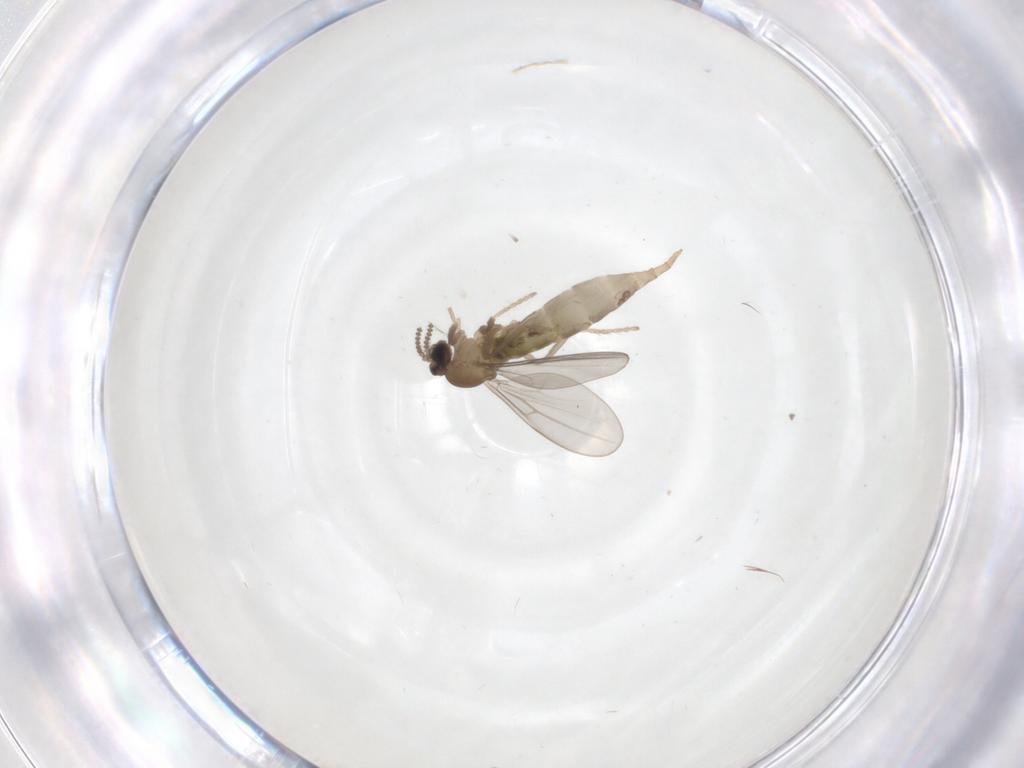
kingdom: Animalia
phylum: Arthropoda
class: Insecta
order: Diptera
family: Cecidomyiidae
